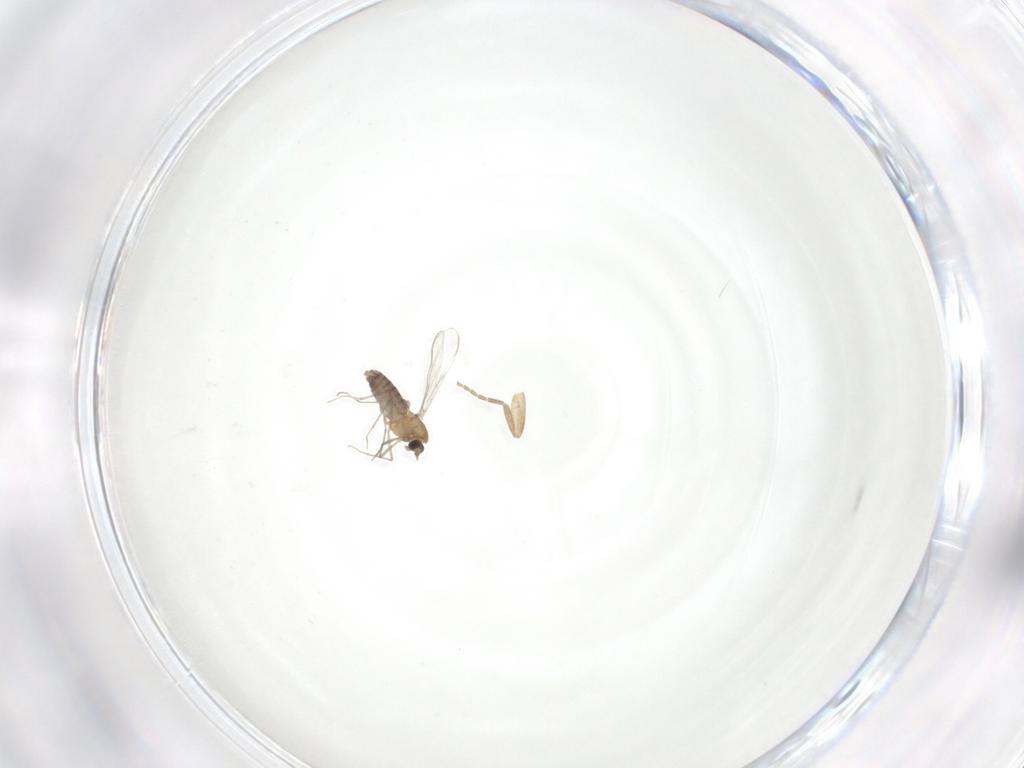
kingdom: Animalia
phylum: Arthropoda
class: Insecta
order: Diptera
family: Chironomidae
